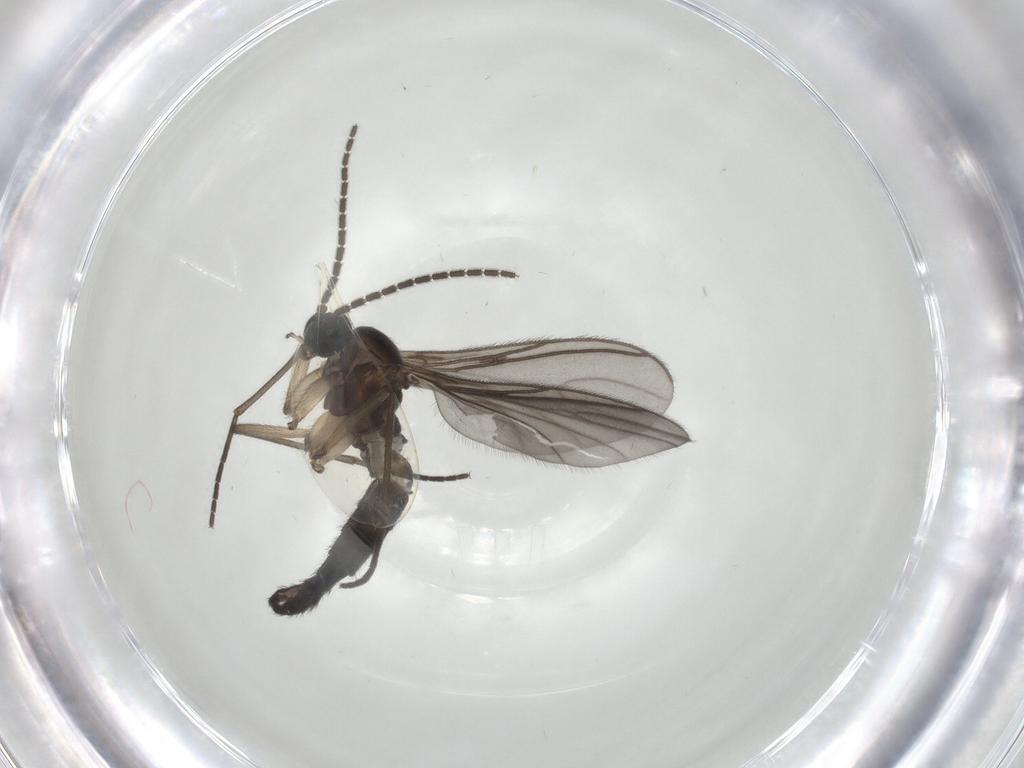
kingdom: Animalia
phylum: Arthropoda
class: Insecta
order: Diptera
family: Sciaridae
